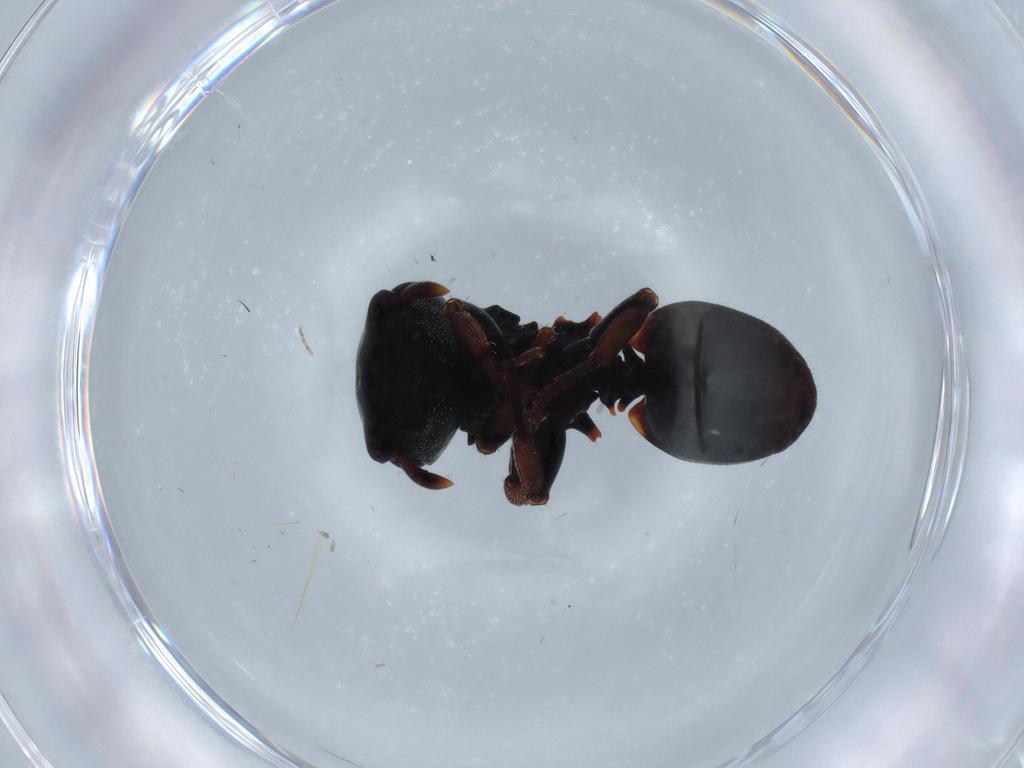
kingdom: Animalia
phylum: Arthropoda
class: Insecta
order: Hymenoptera
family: Formicidae
